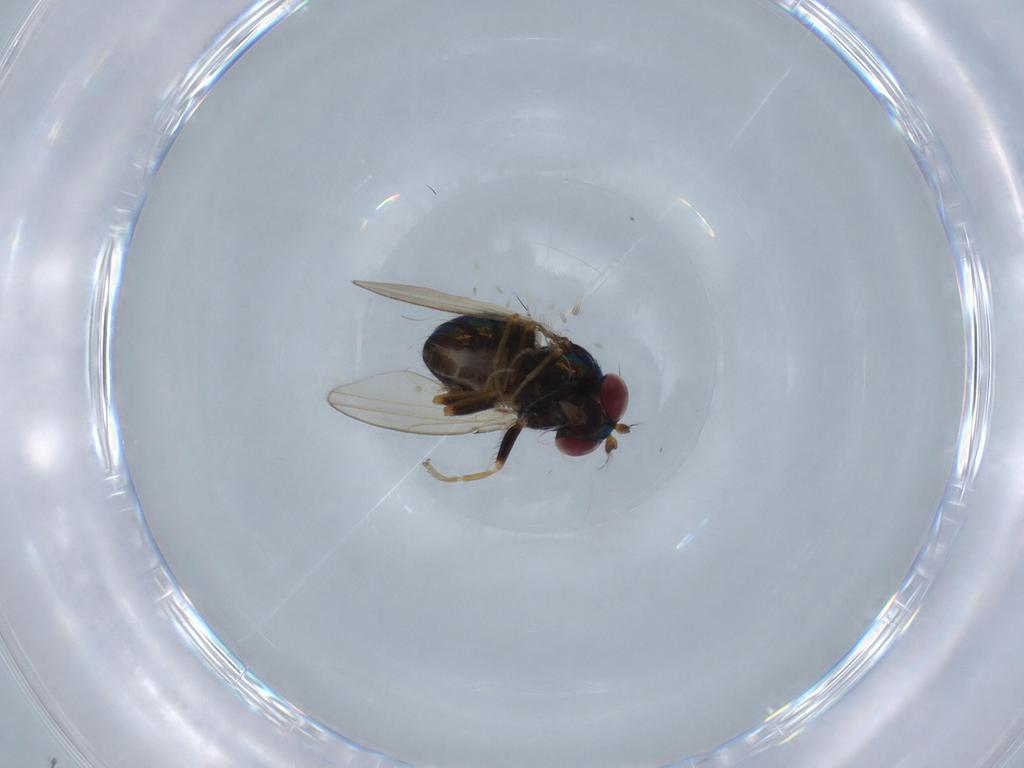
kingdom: Animalia
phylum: Arthropoda
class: Insecta
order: Diptera
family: Ephydridae
